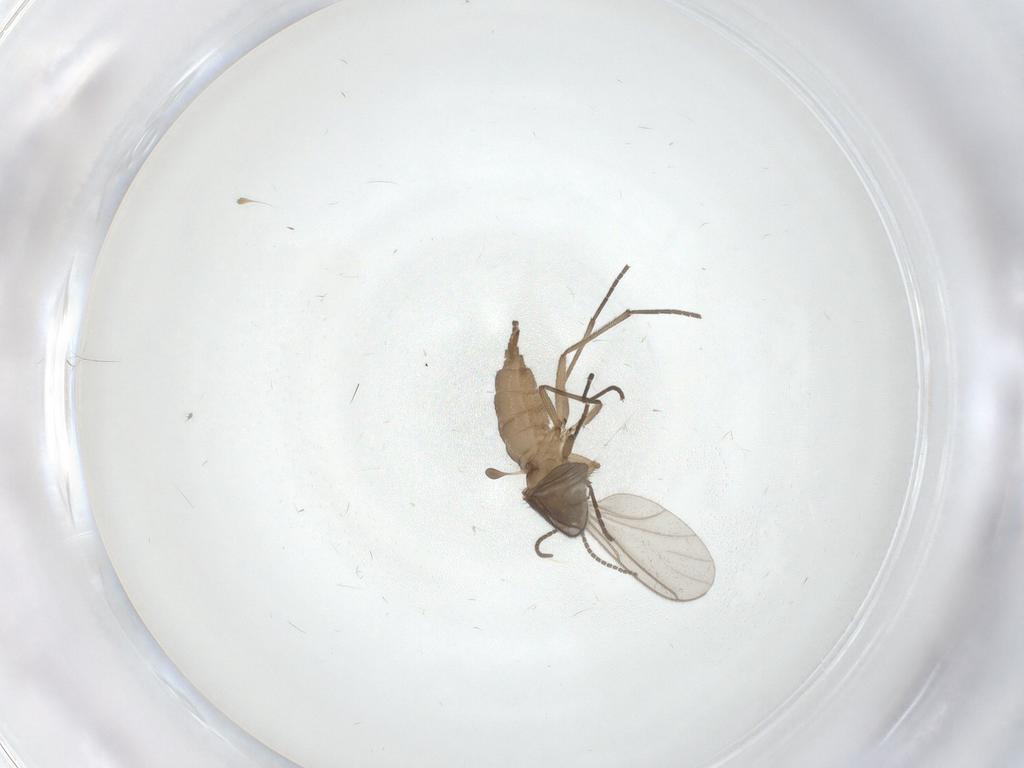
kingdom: Animalia
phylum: Arthropoda
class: Insecta
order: Diptera
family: Sciaridae
